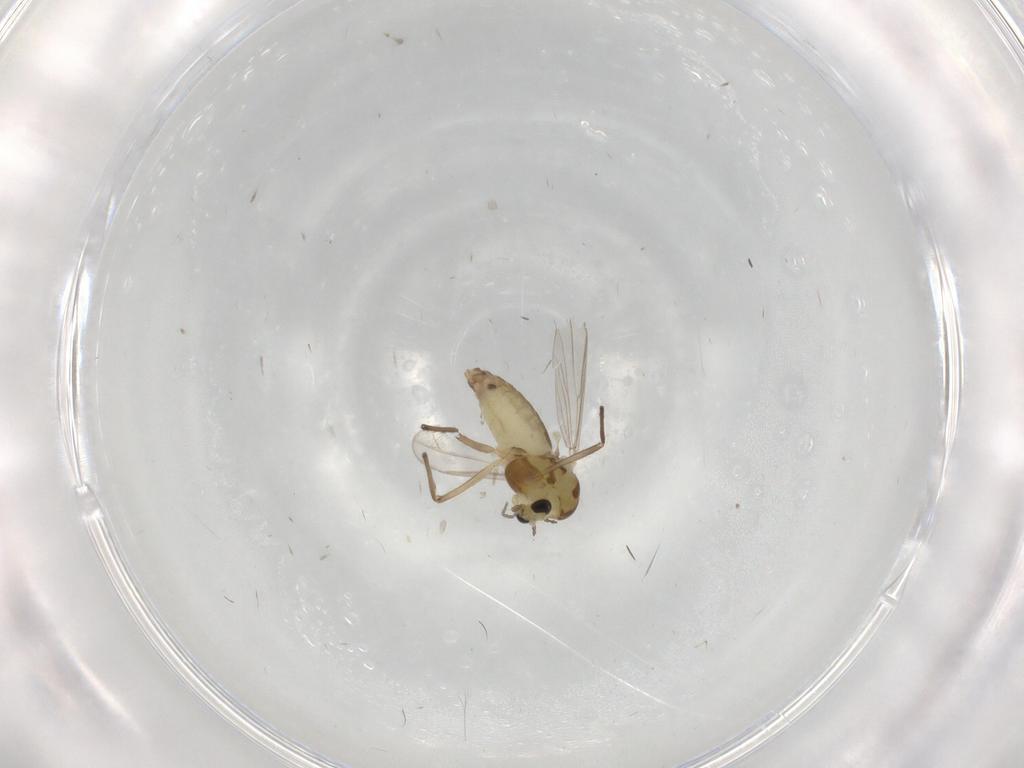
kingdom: Animalia
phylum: Arthropoda
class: Insecta
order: Diptera
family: Chironomidae
